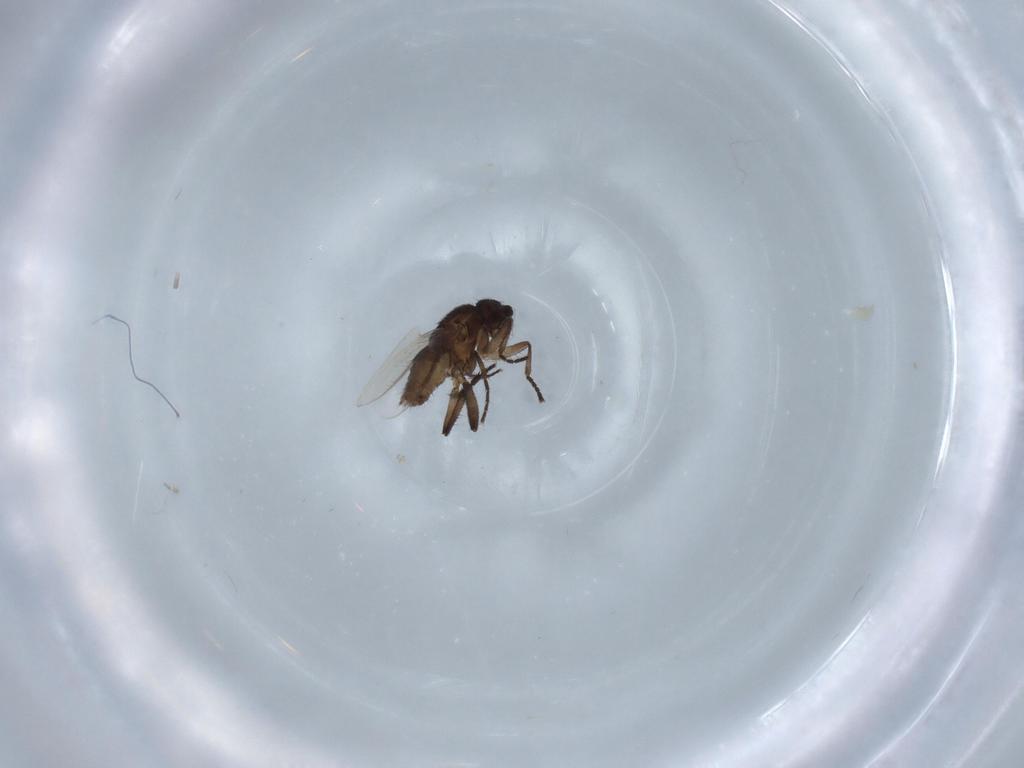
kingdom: Animalia
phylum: Arthropoda
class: Insecta
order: Diptera
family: Sphaeroceridae
